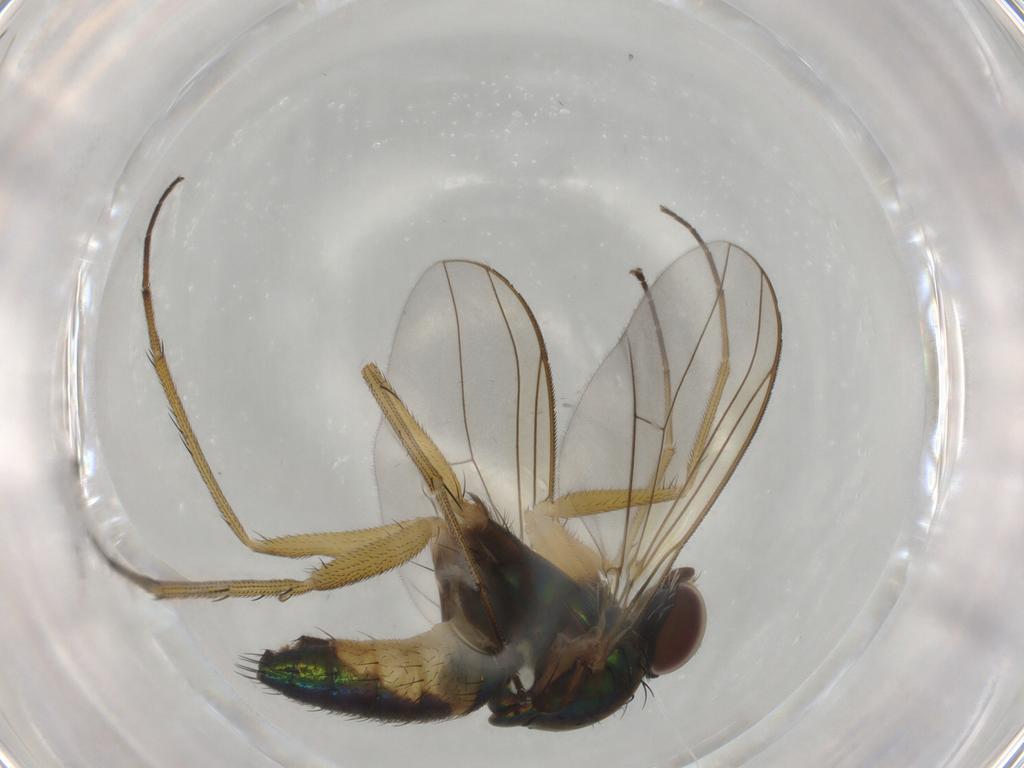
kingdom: Animalia
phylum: Arthropoda
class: Insecta
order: Diptera
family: Dolichopodidae
